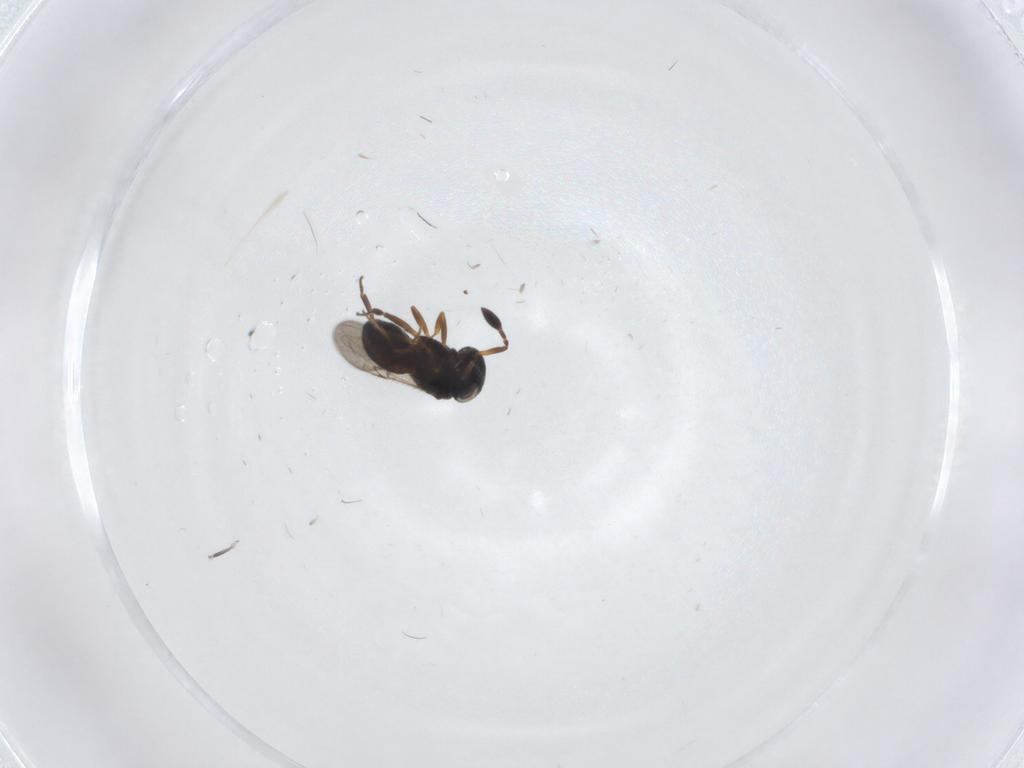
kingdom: Animalia
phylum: Arthropoda
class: Insecta
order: Hymenoptera
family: Scelionidae
